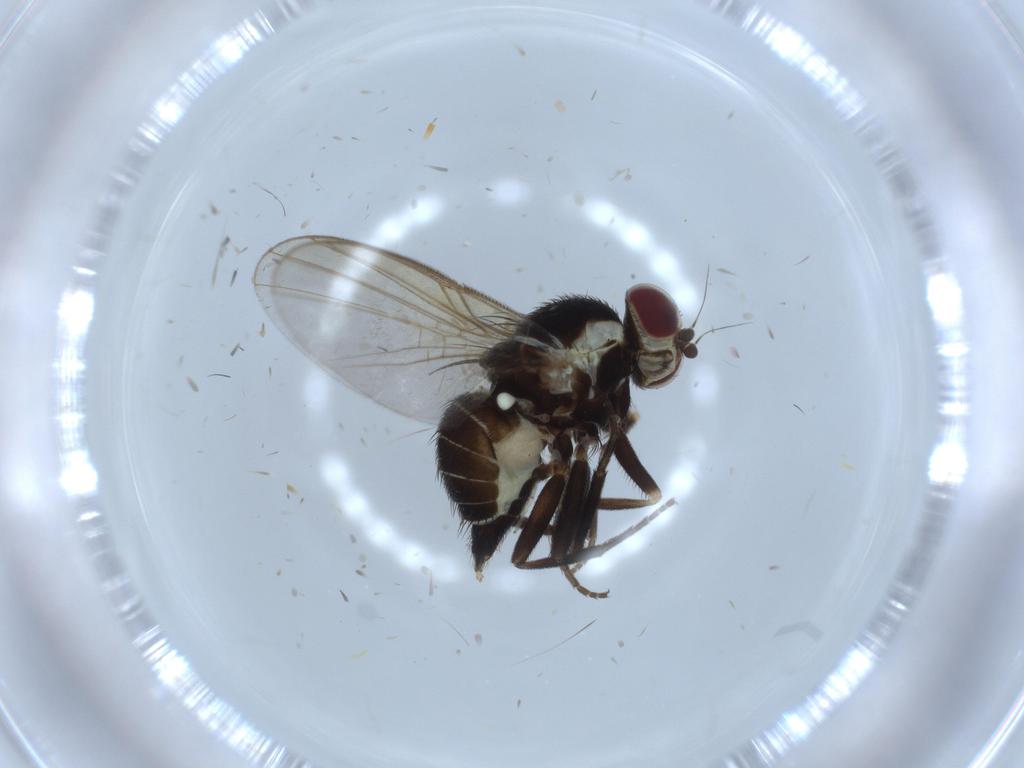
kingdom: Animalia
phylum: Arthropoda
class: Insecta
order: Diptera
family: Agromyzidae
